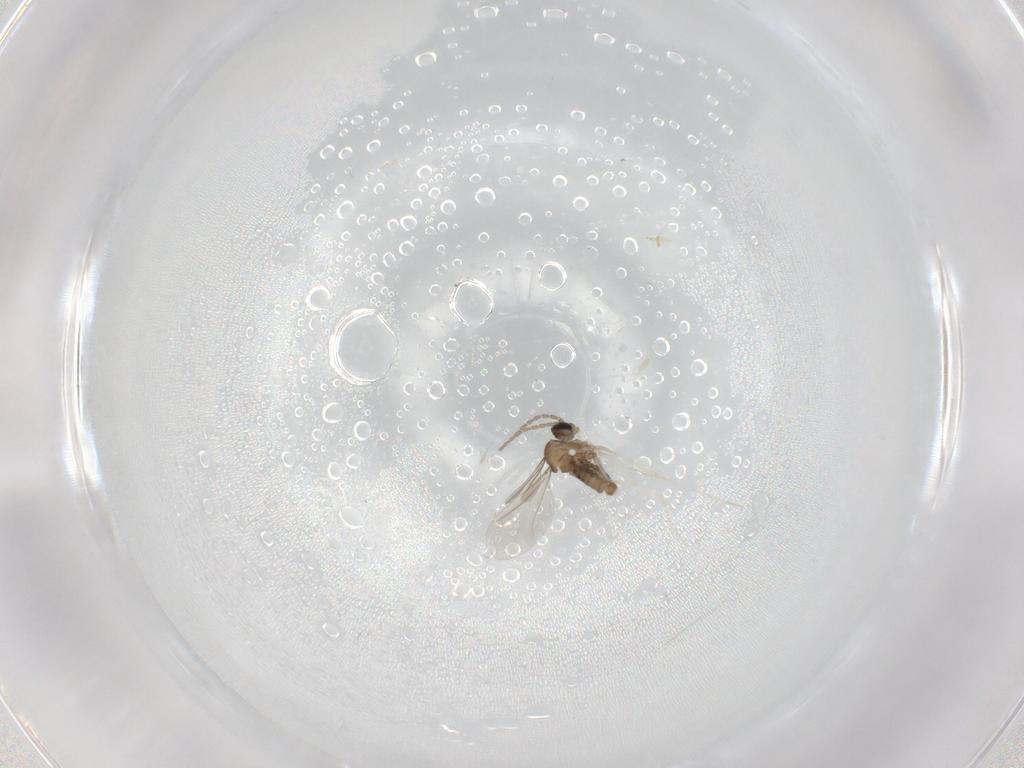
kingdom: Animalia
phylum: Arthropoda
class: Insecta
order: Diptera
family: Cecidomyiidae
